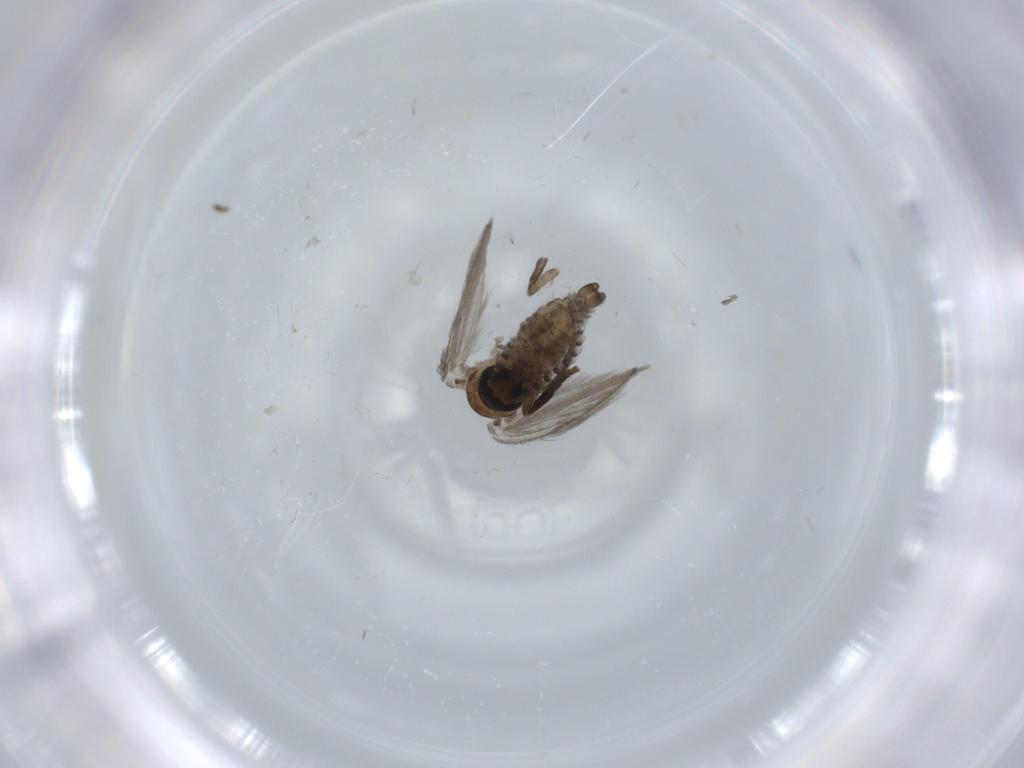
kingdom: Animalia
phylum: Arthropoda
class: Insecta
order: Diptera
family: Psychodidae
